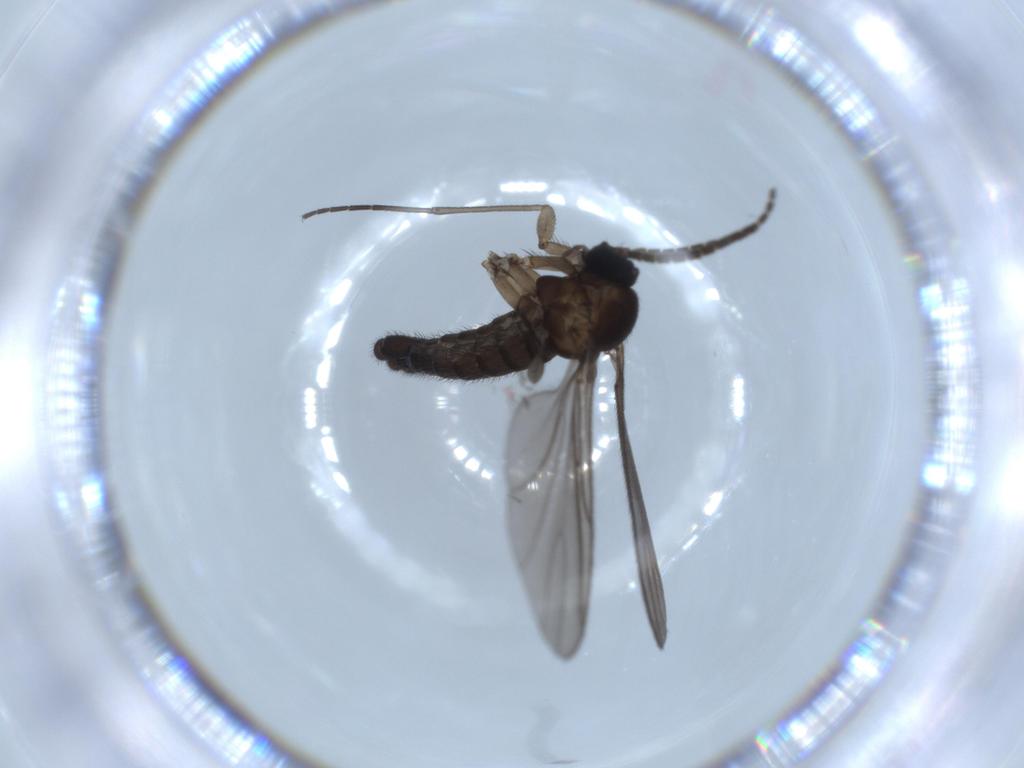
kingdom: Animalia
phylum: Arthropoda
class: Insecta
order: Diptera
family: Sciaridae
